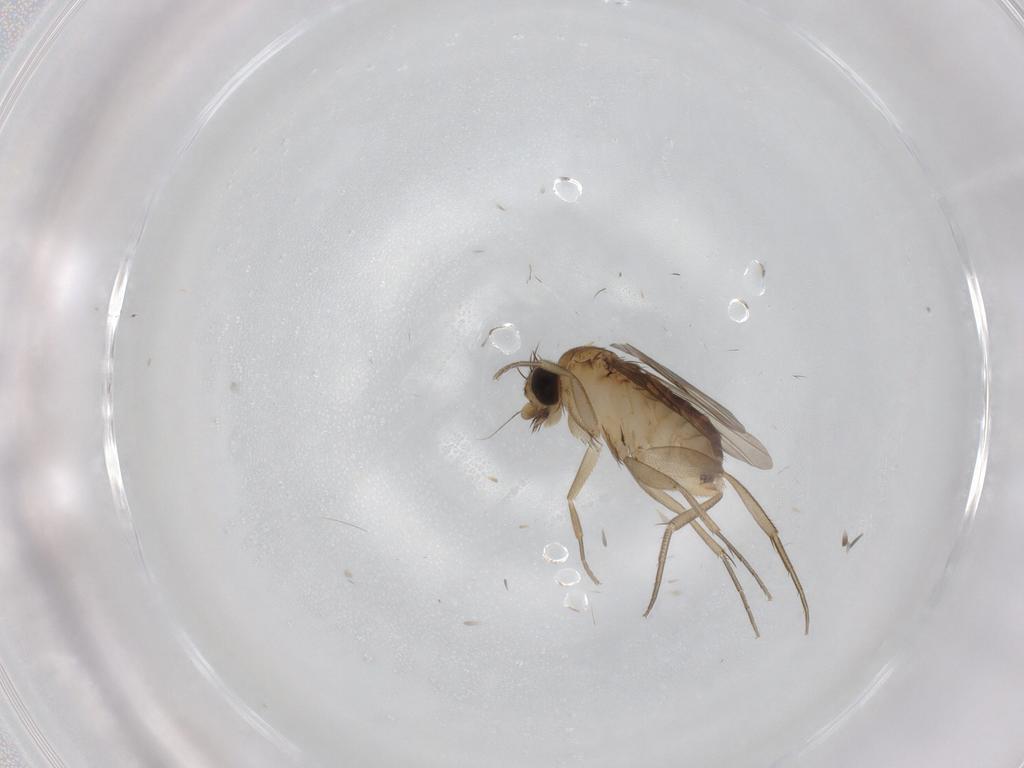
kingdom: Animalia
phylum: Arthropoda
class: Insecta
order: Diptera
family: Phoridae
